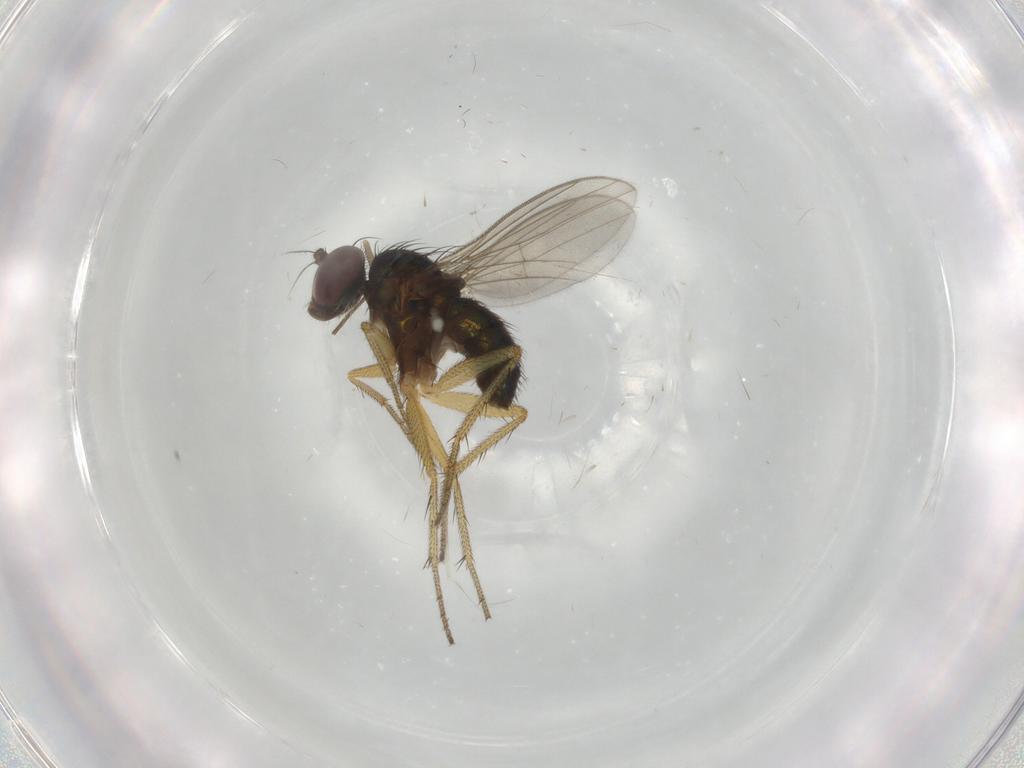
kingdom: Animalia
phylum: Arthropoda
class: Insecta
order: Diptera
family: Dolichopodidae
